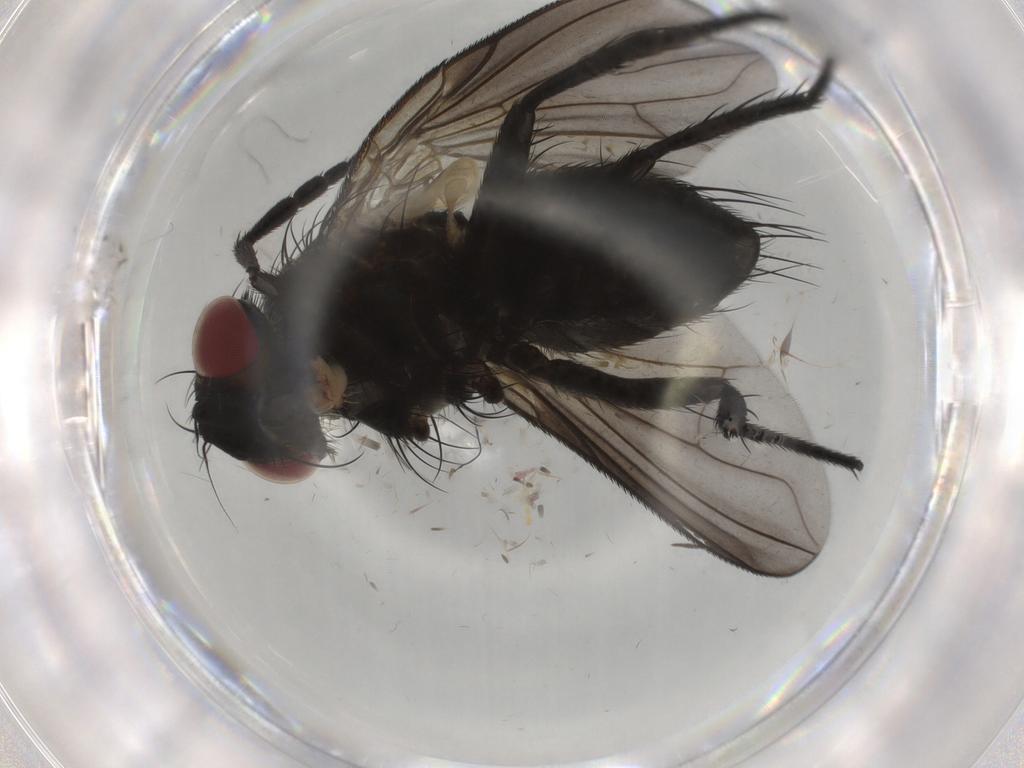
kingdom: Animalia
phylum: Arthropoda
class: Insecta
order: Diptera
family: Cecidomyiidae
